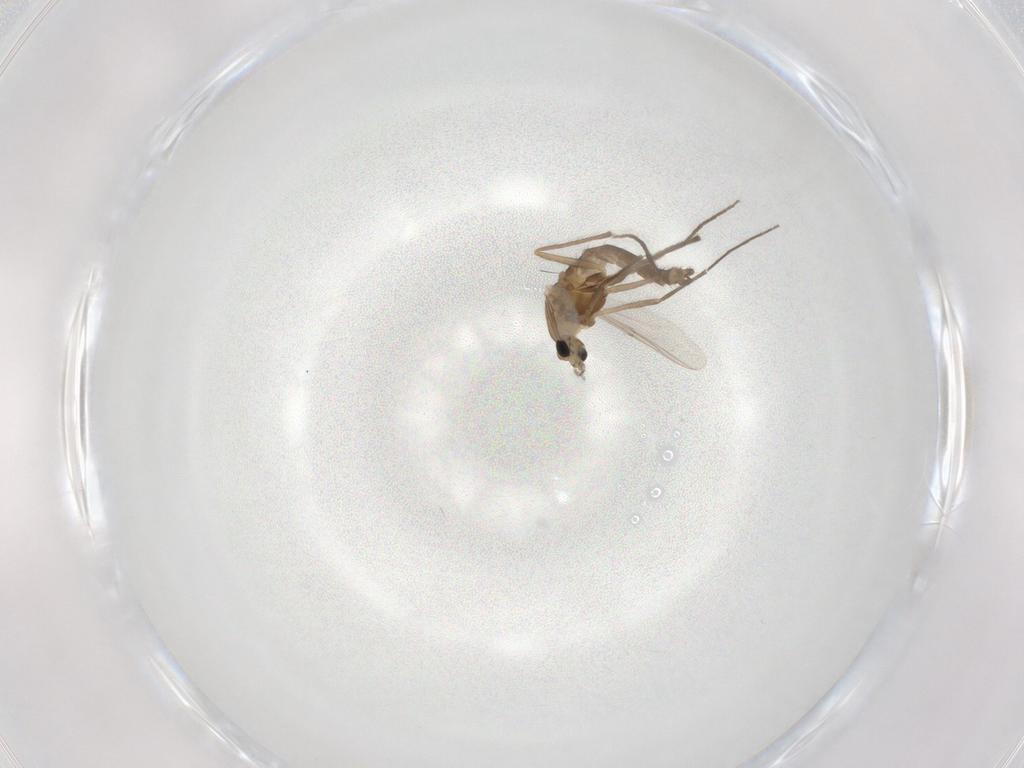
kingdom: Animalia
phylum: Arthropoda
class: Insecta
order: Diptera
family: Chironomidae
